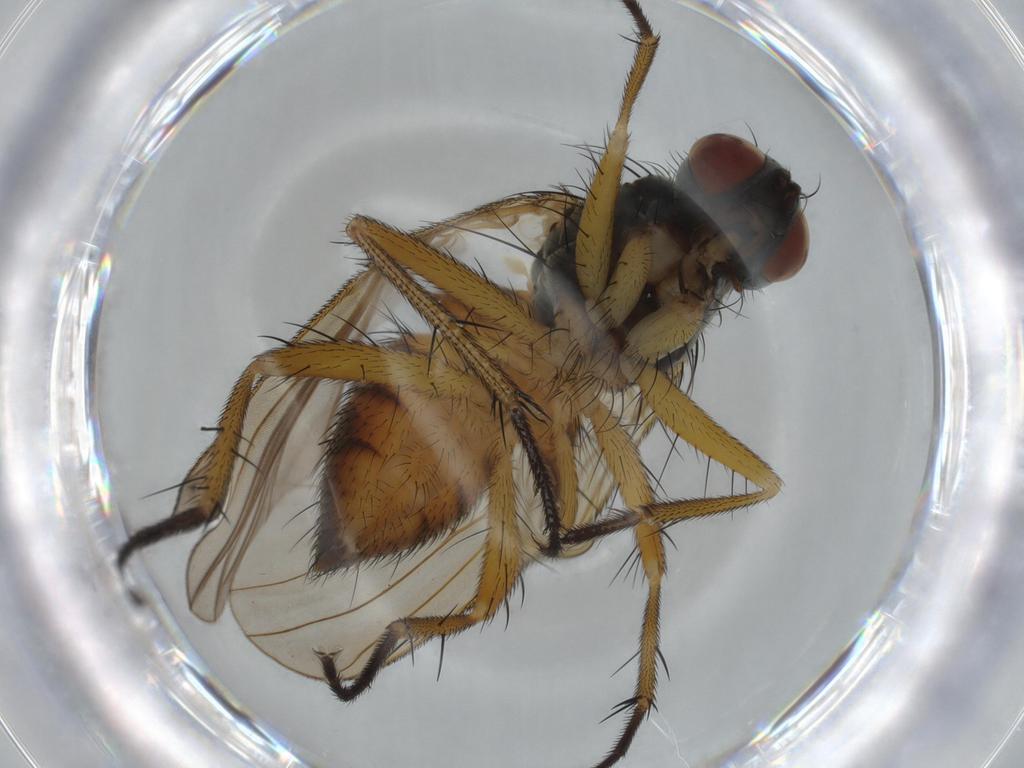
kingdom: Animalia
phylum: Arthropoda
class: Insecta
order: Diptera
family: Muscidae
